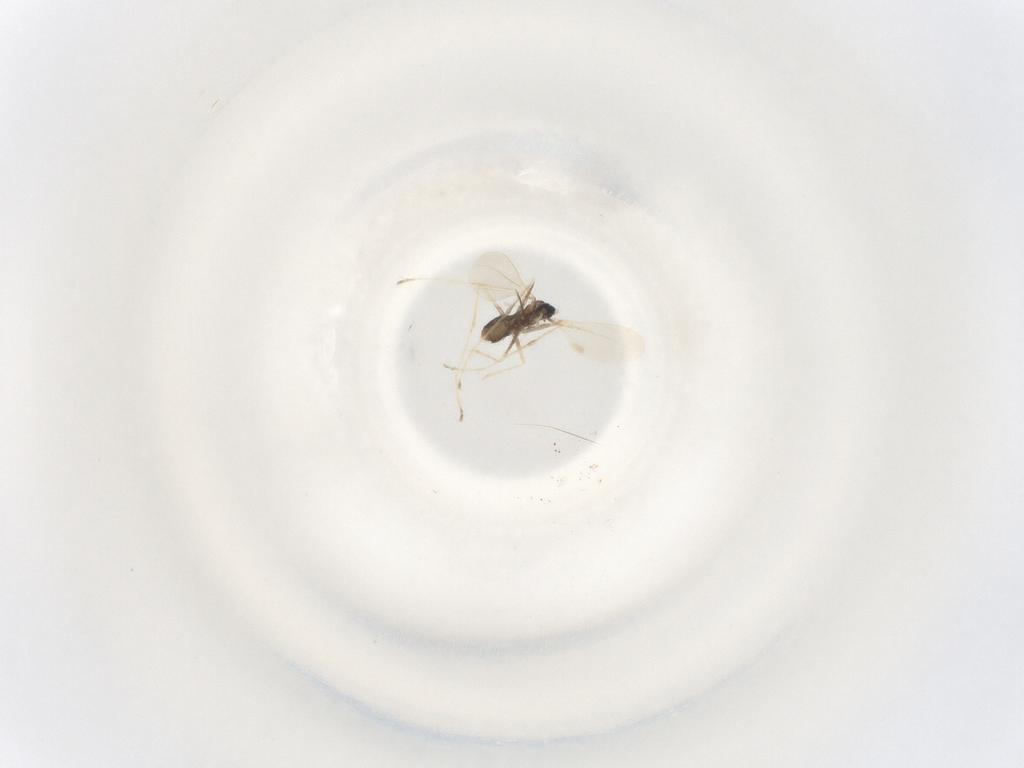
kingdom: Animalia
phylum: Arthropoda
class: Insecta
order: Diptera
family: Cecidomyiidae
